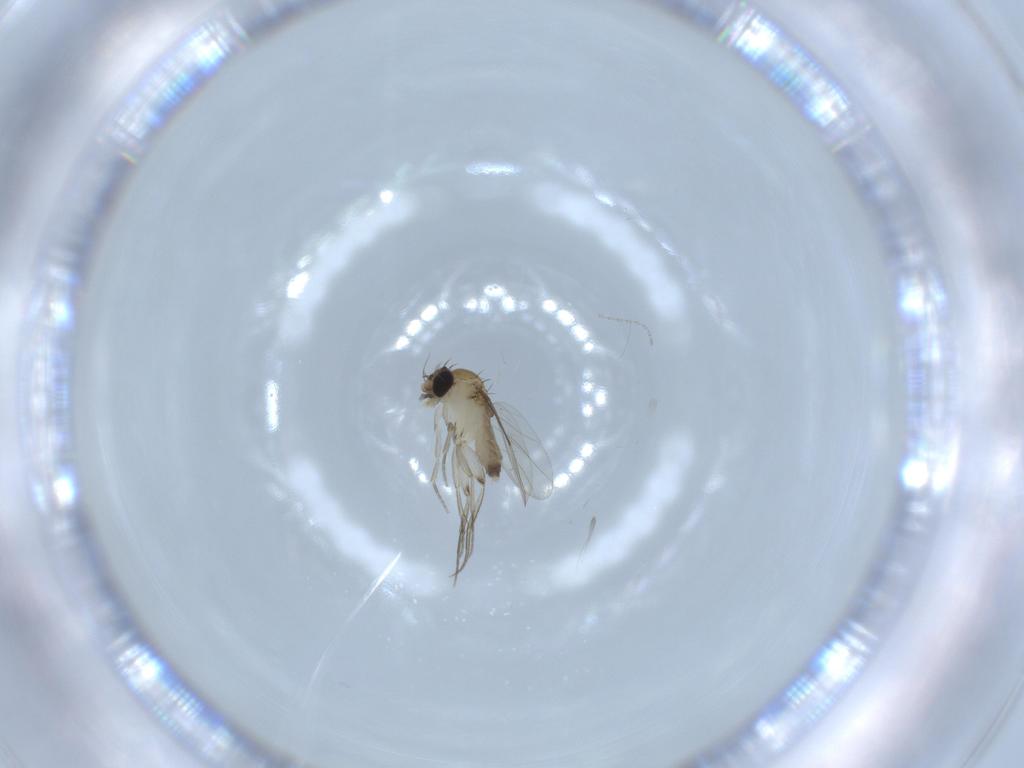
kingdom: Animalia
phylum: Arthropoda
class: Insecta
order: Diptera
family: Phoridae
